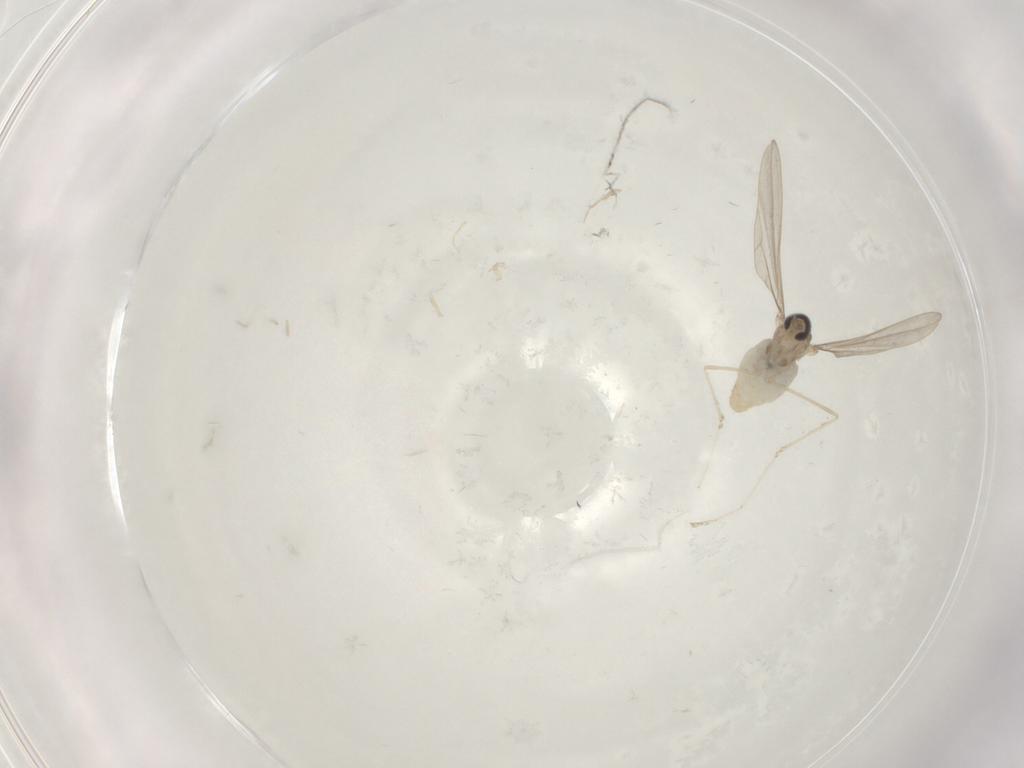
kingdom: Animalia
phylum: Arthropoda
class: Insecta
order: Diptera
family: Cecidomyiidae
